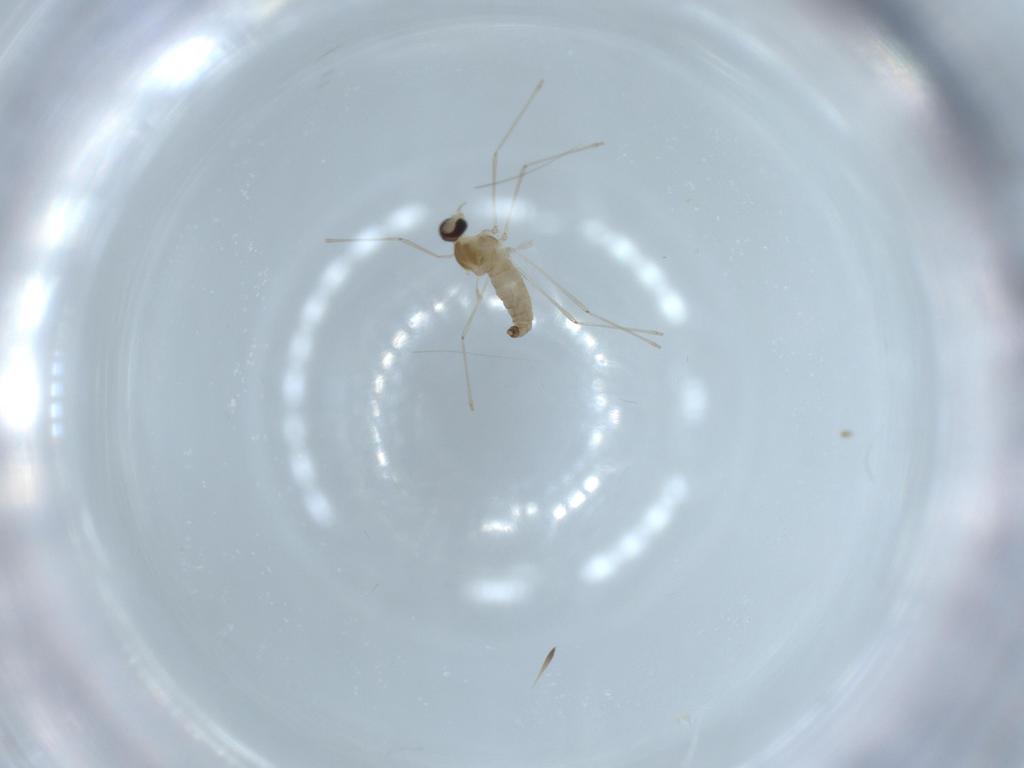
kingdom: Animalia
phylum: Arthropoda
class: Insecta
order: Diptera
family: Cecidomyiidae
